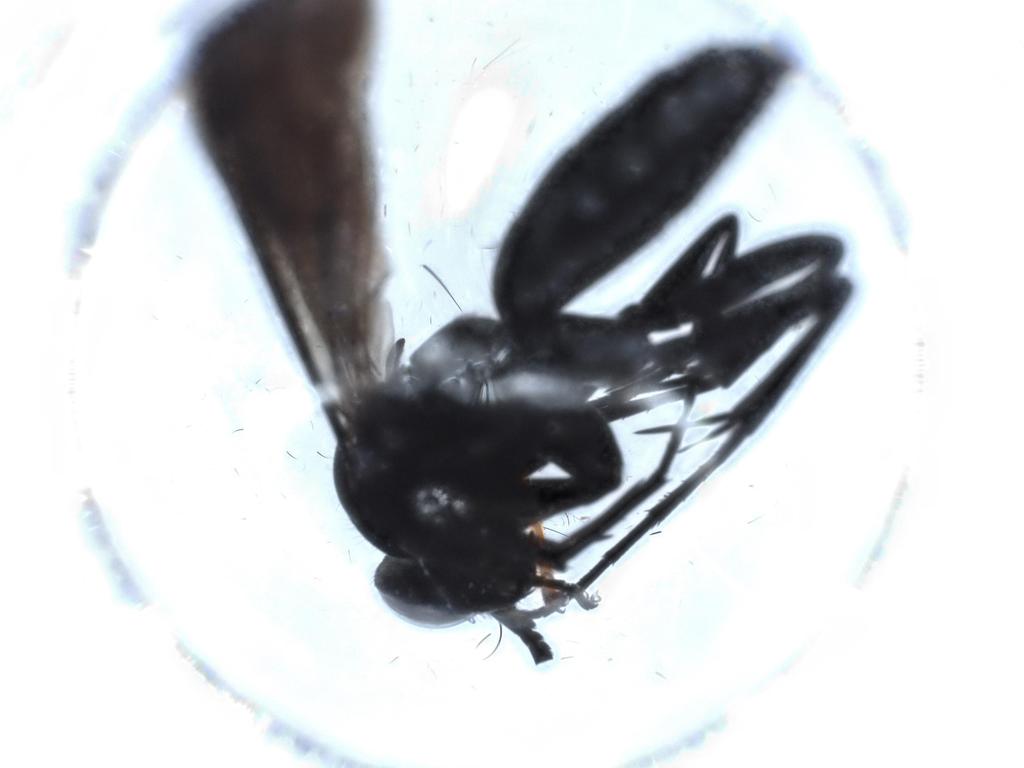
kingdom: Animalia
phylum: Arthropoda
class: Insecta
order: Hymenoptera
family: Pompilidae
